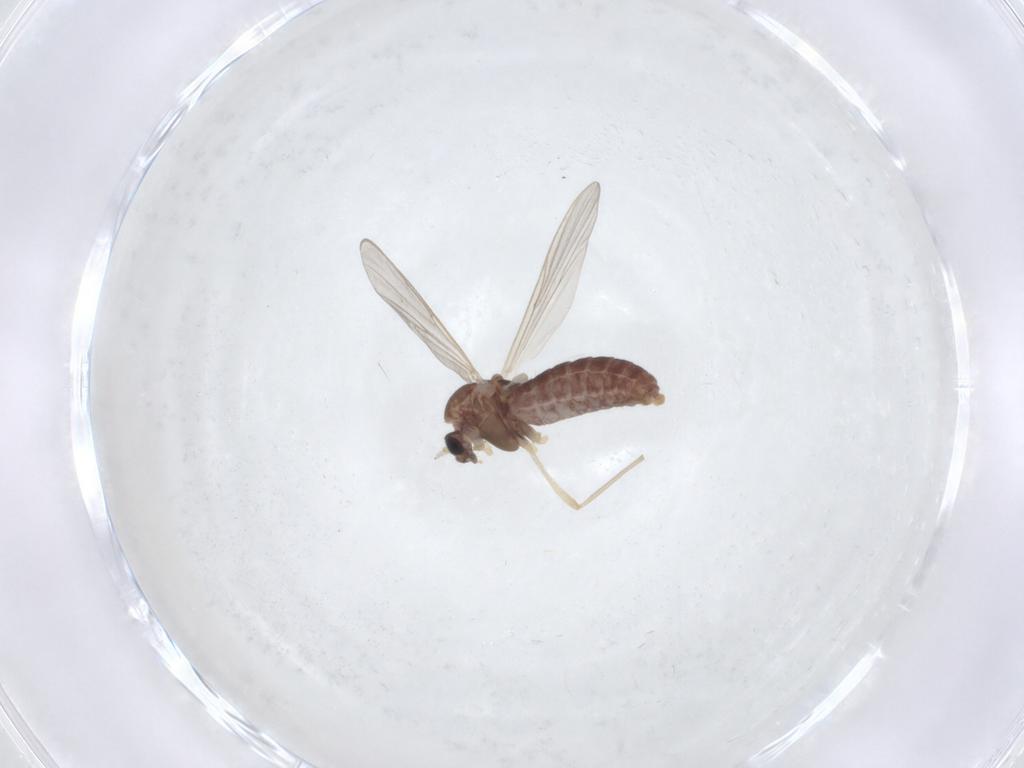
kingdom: Animalia
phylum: Arthropoda
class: Insecta
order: Diptera
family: Chironomidae
